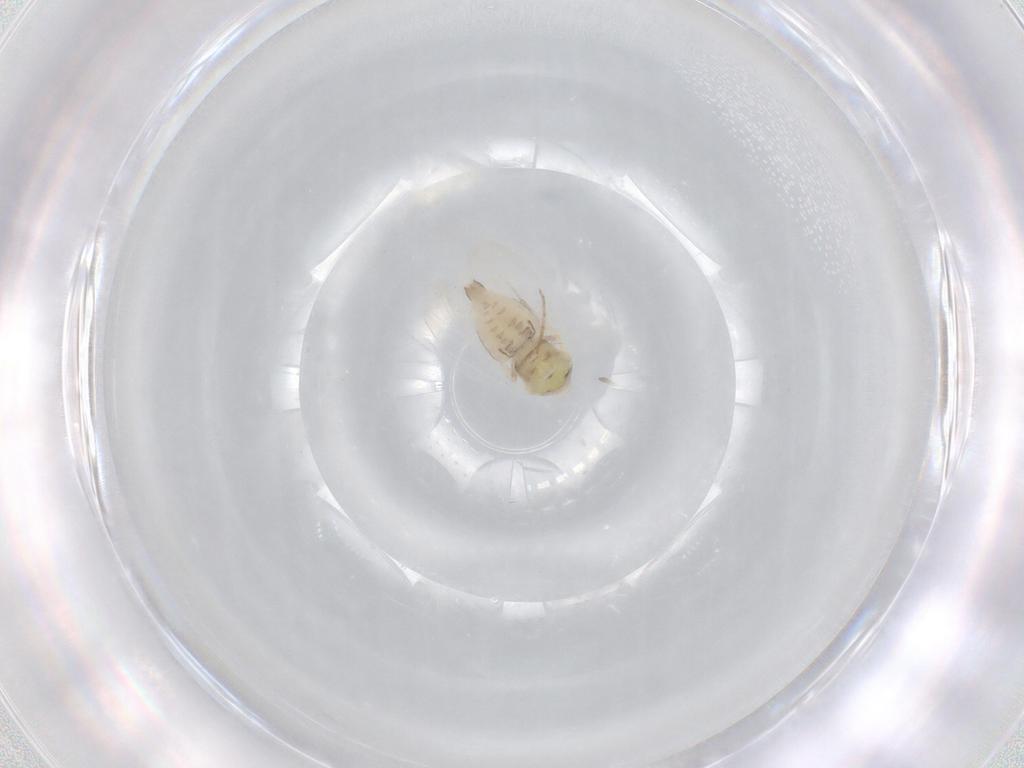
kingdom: Animalia
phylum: Arthropoda
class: Insecta
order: Hemiptera
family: Aleyrodidae
